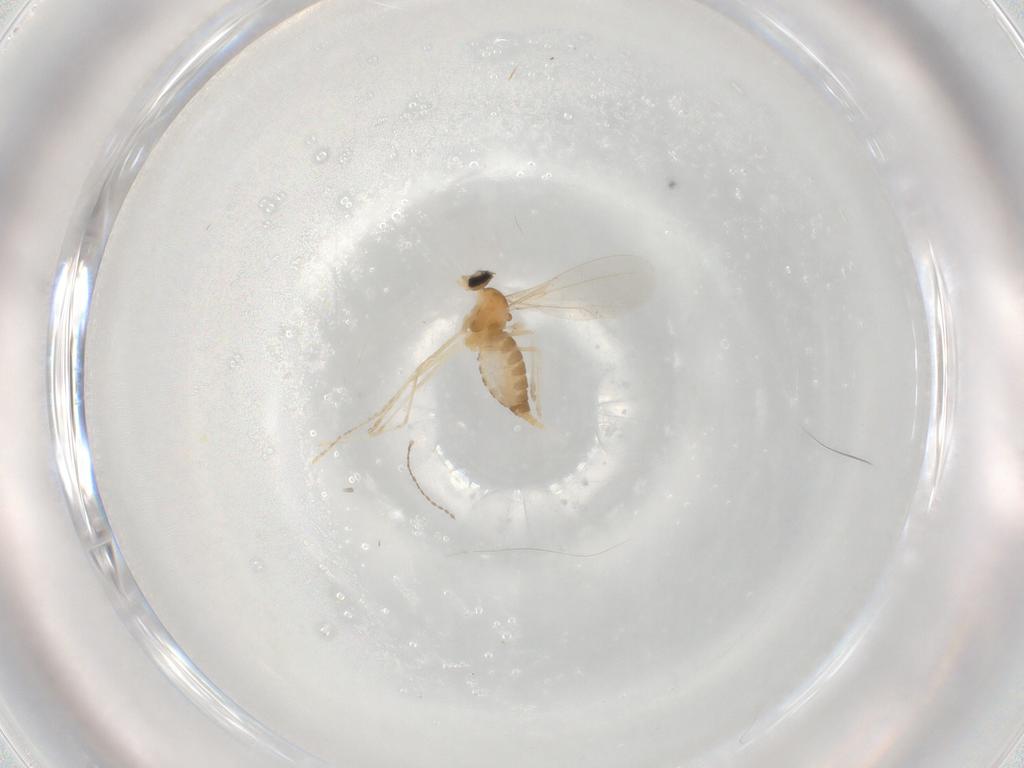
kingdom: Animalia
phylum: Arthropoda
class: Insecta
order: Diptera
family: Cecidomyiidae
